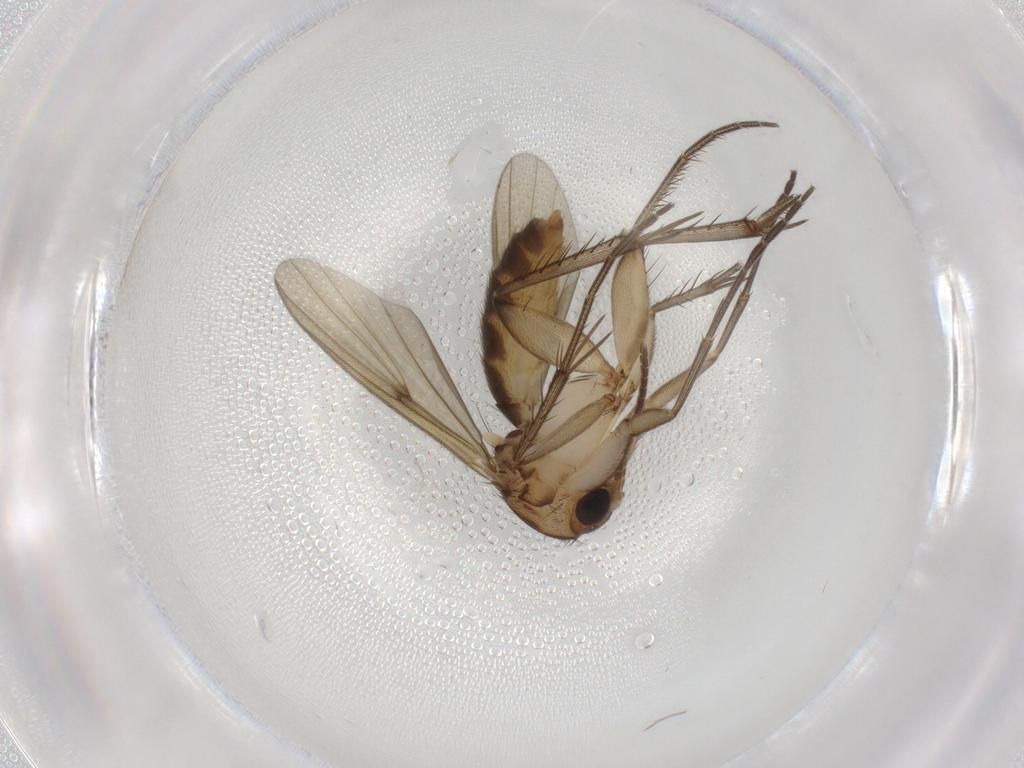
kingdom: Animalia
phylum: Arthropoda
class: Insecta
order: Diptera
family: Mycetophilidae
